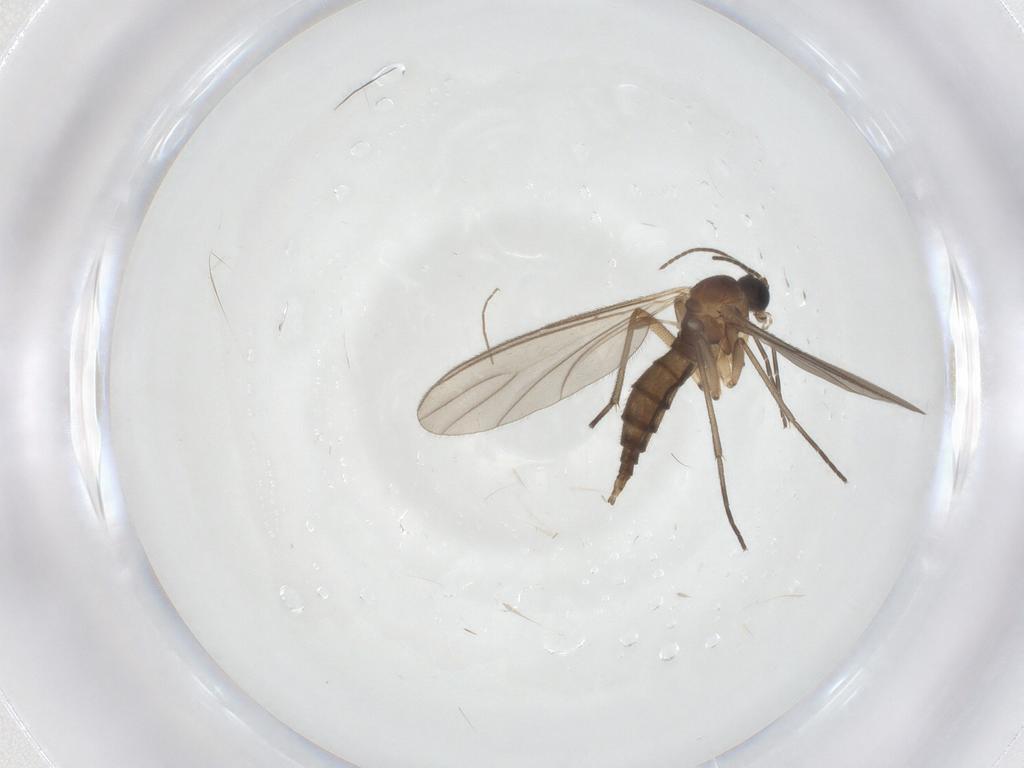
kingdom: Animalia
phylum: Arthropoda
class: Insecta
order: Diptera
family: Sciaridae
